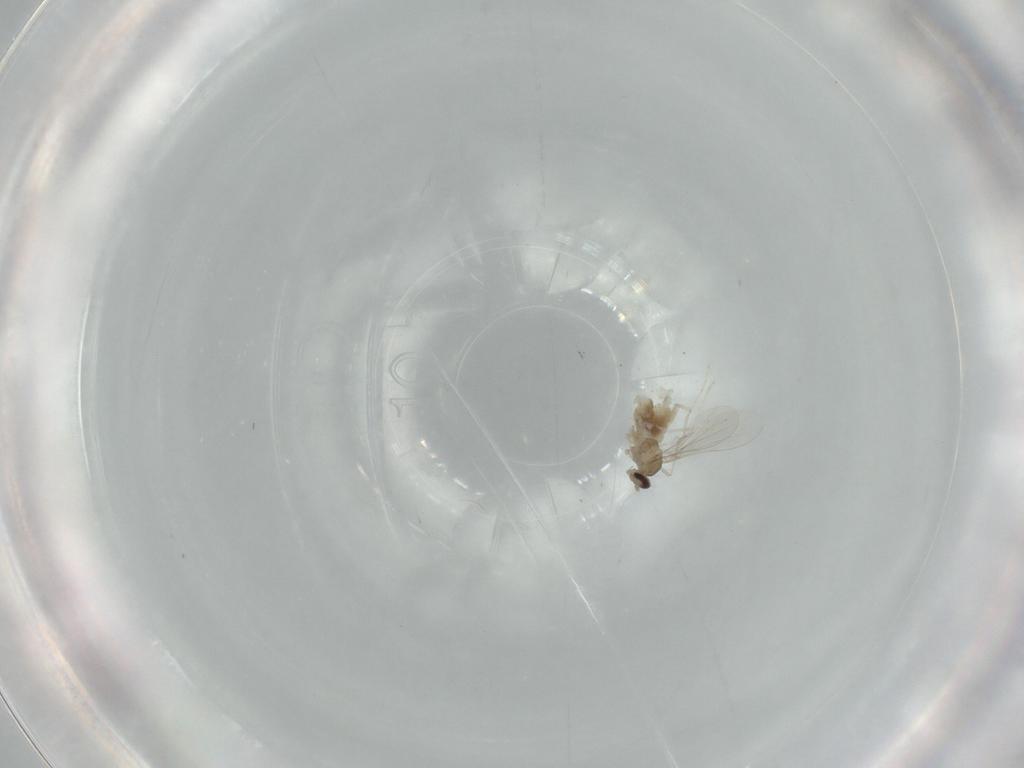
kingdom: Animalia
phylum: Arthropoda
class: Insecta
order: Diptera
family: Cecidomyiidae
